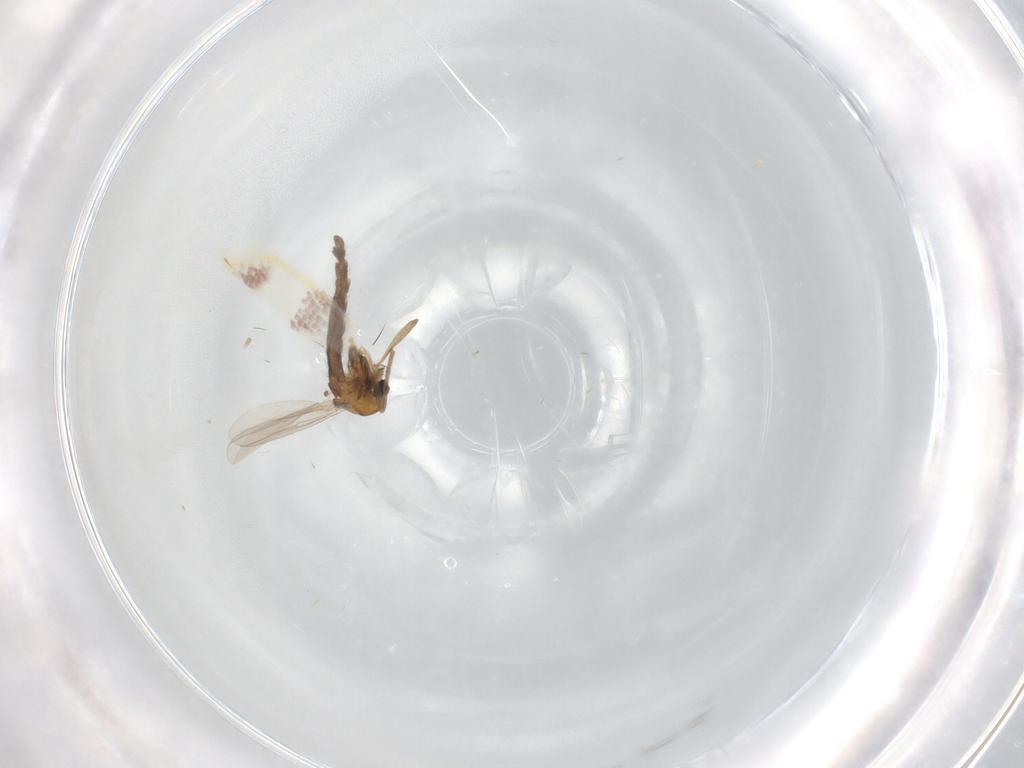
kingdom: Animalia
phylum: Arthropoda
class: Insecta
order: Diptera
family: Chironomidae
